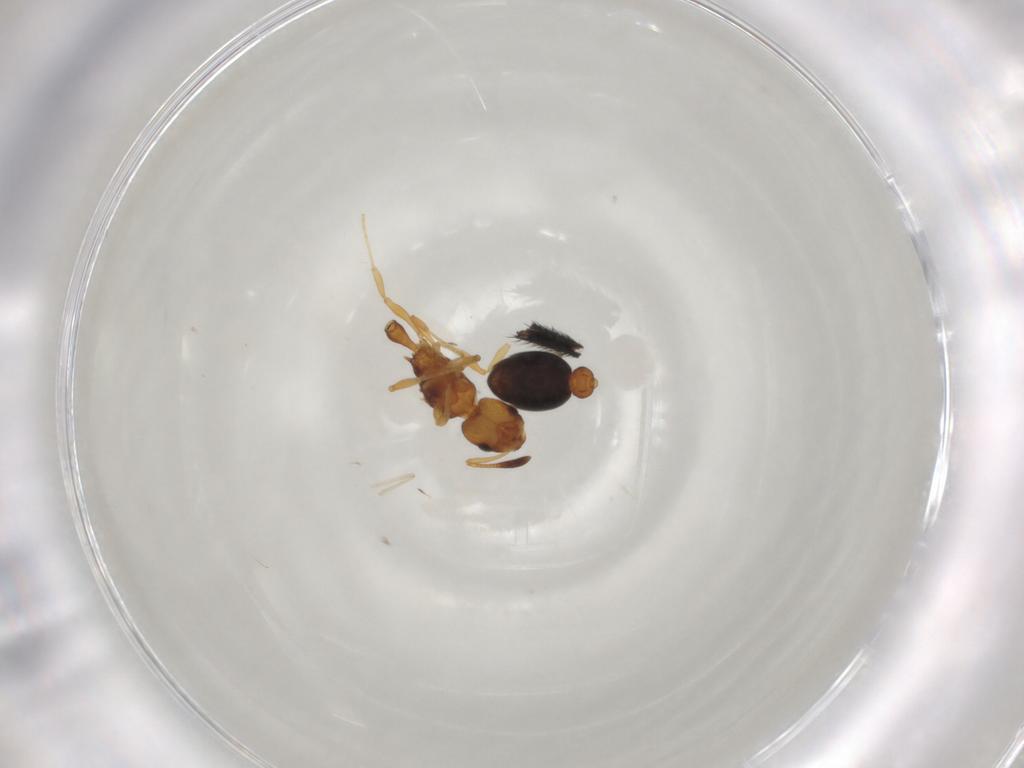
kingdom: Animalia
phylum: Arthropoda
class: Insecta
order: Hymenoptera
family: Formicidae
